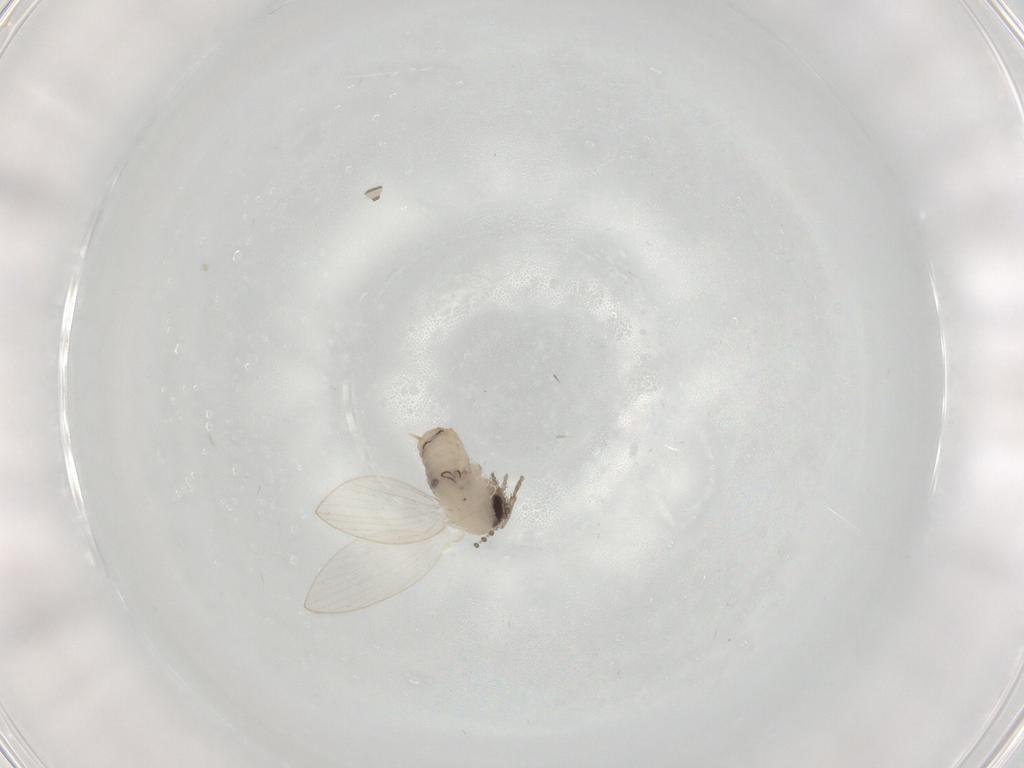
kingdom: Animalia
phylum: Arthropoda
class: Insecta
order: Diptera
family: Psychodidae
